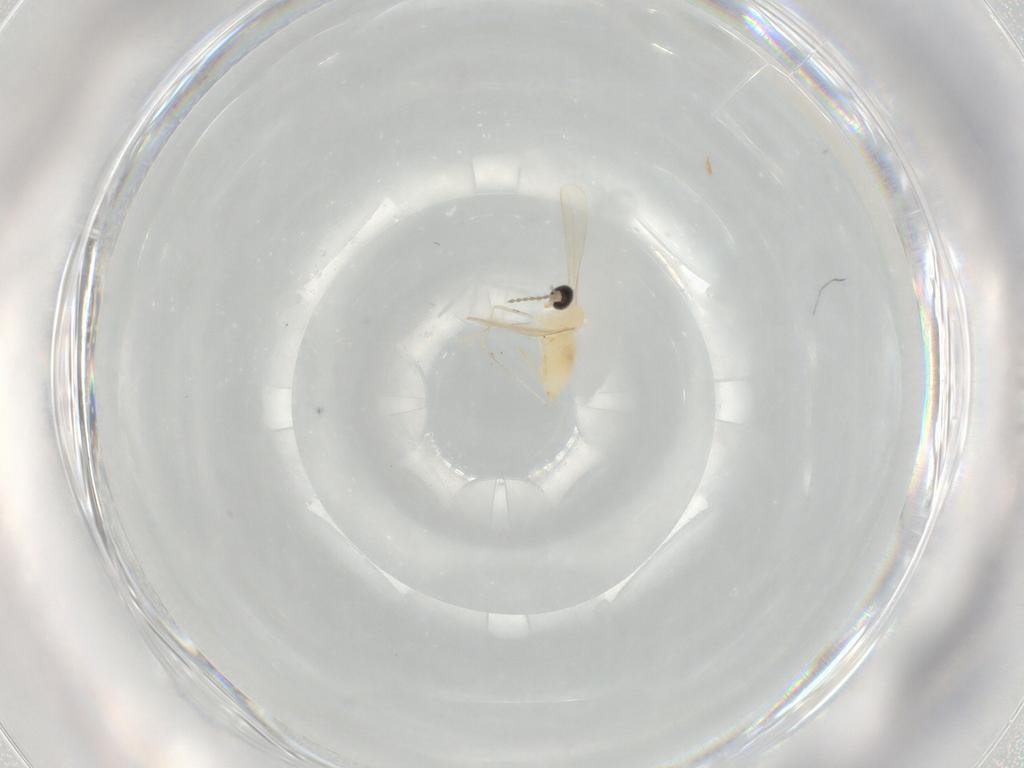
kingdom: Animalia
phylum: Arthropoda
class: Insecta
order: Diptera
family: Cecidomyiidae
